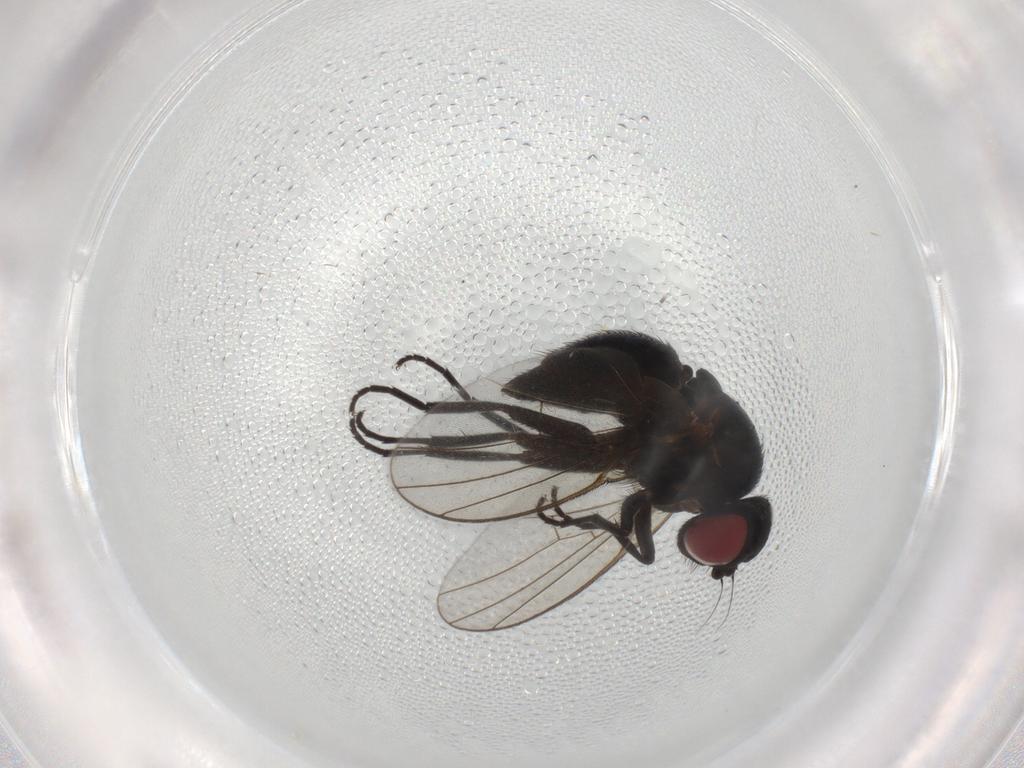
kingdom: Animalia
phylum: Arthropoda
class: Insecta
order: Diptera
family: Agromyzidae
